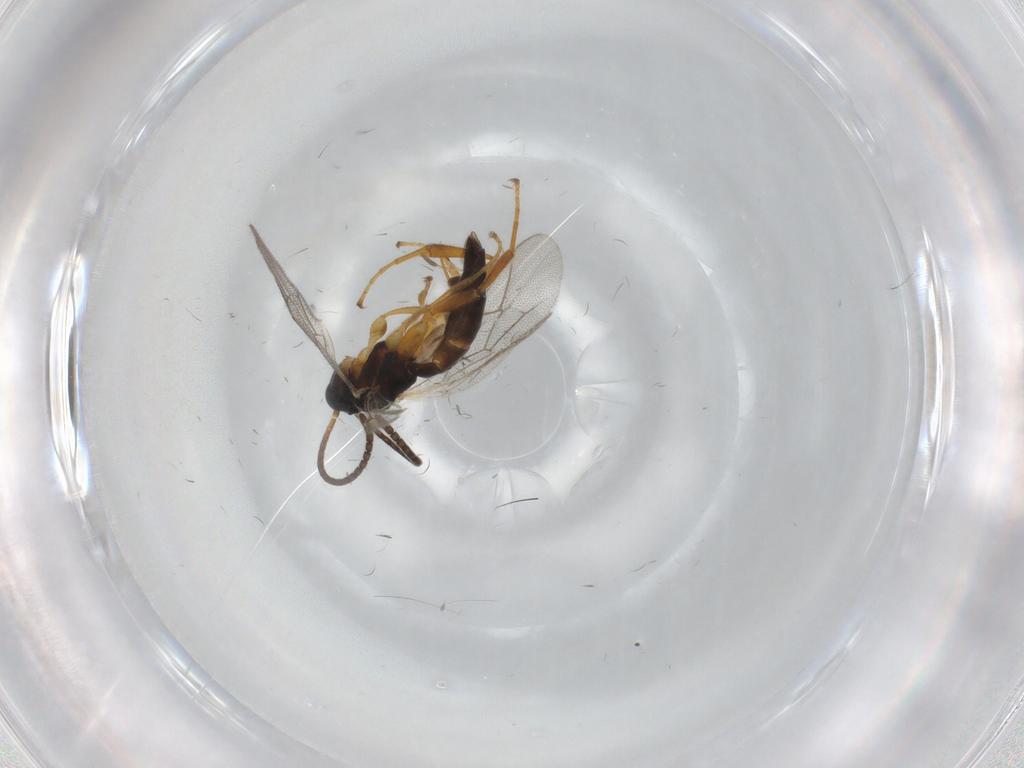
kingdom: Animalia
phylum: Arthropoda
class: Insecta
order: Hymenoptera
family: Ichneumonidae
